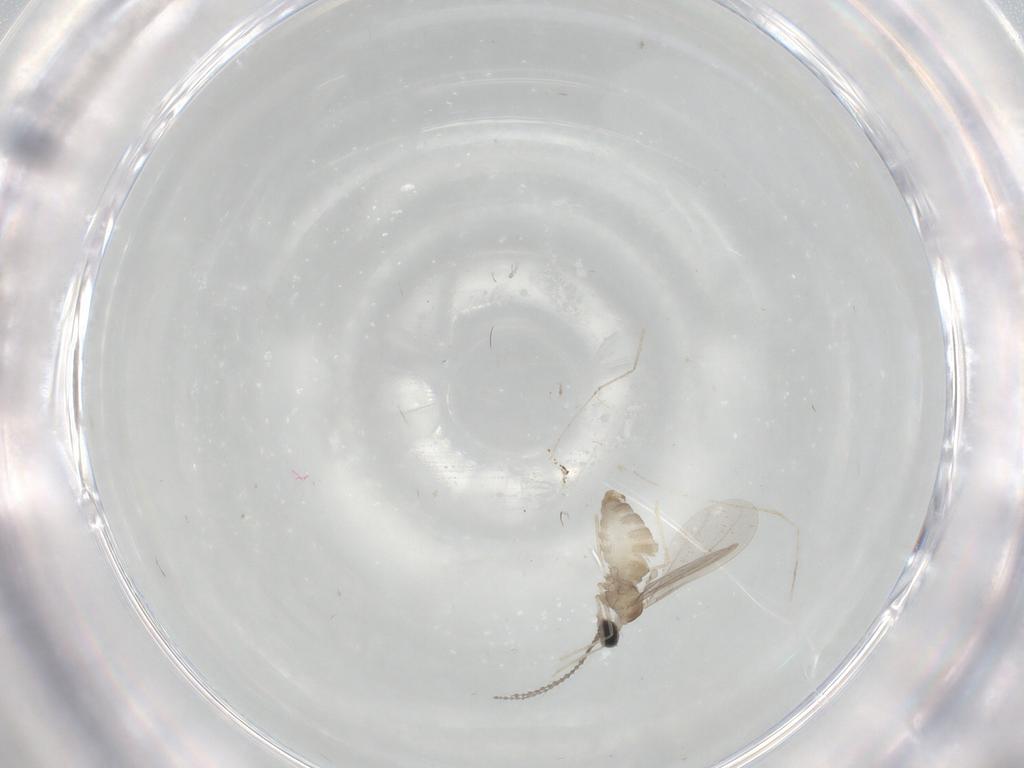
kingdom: Animalia
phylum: Arthropoda
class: Insecta
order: Diptera
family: Cecidomyiidae
